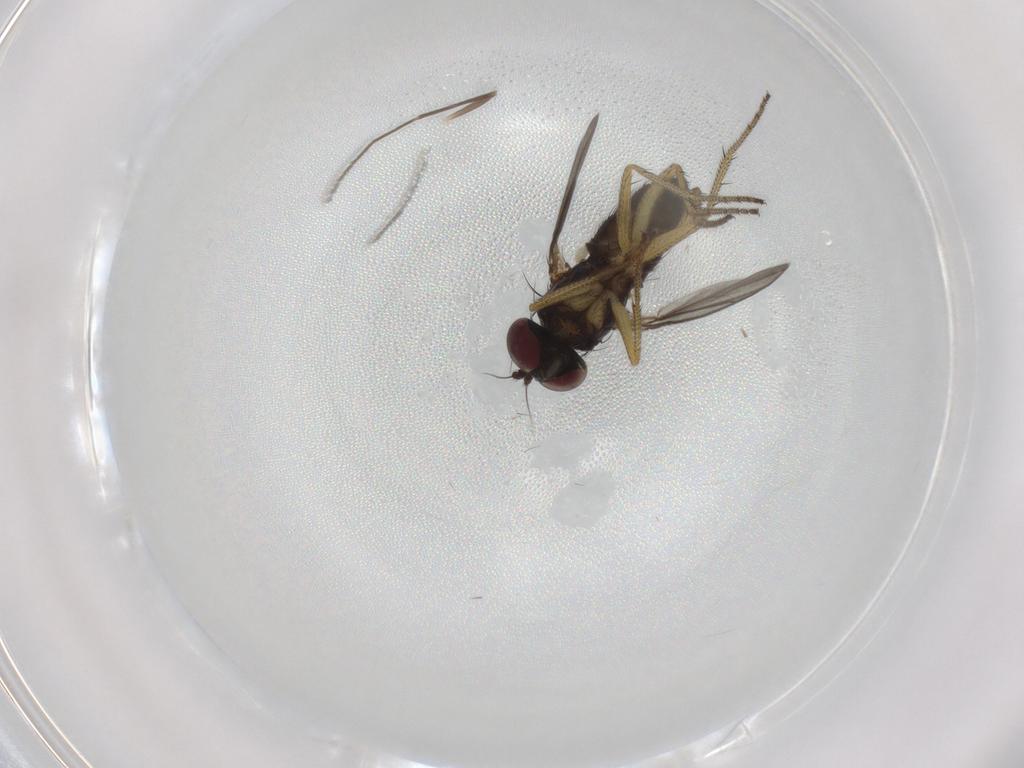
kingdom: Animalia
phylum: Arthropoda
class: Insecta
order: Diptera
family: Dolichopodidae
